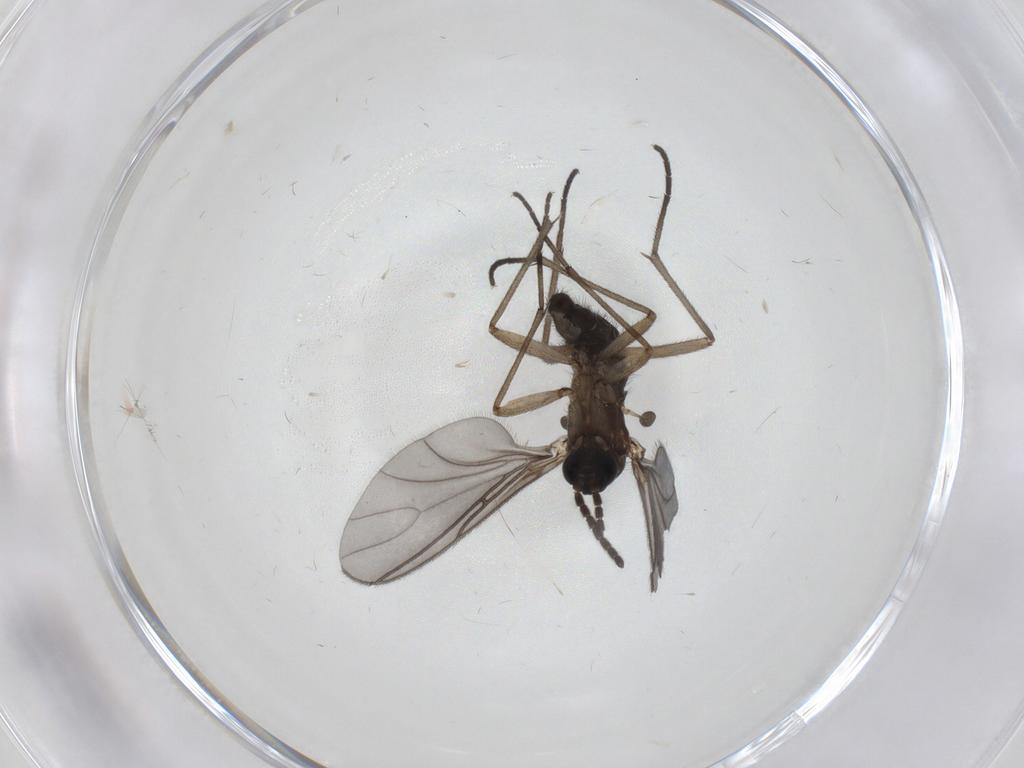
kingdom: Animalia
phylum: Arthropoda
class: Insecta
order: Diptera
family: Sciaridae
